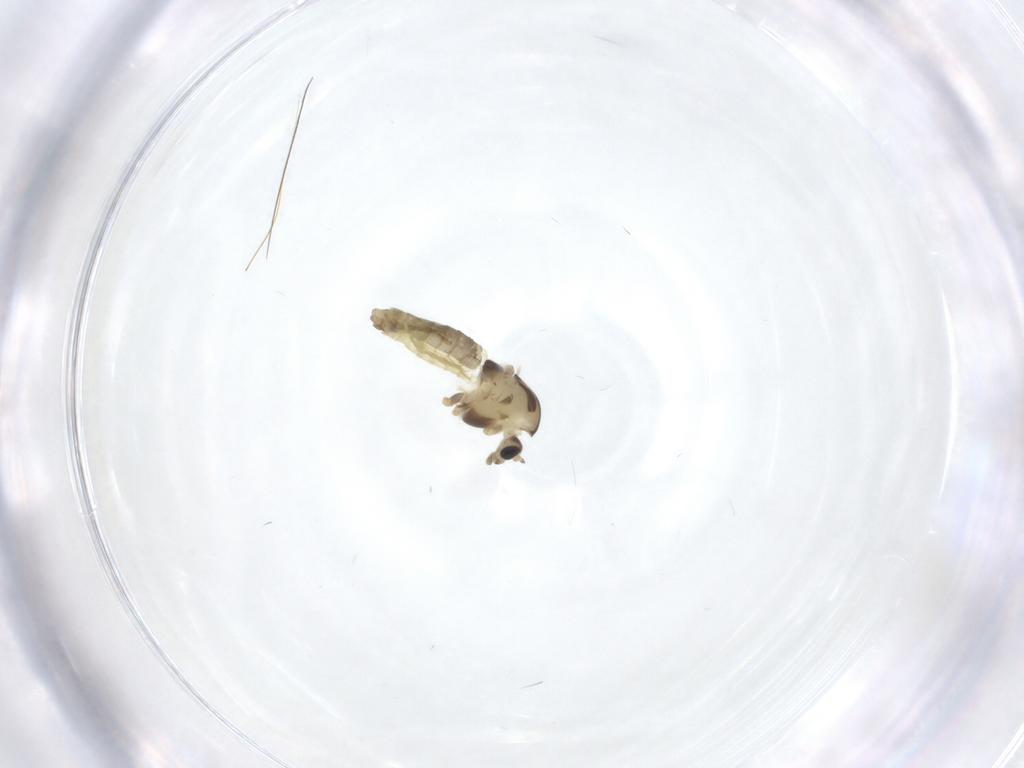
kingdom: Animalia
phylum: Arthropoda
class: Insecta
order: Diptera
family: Chironomidae
